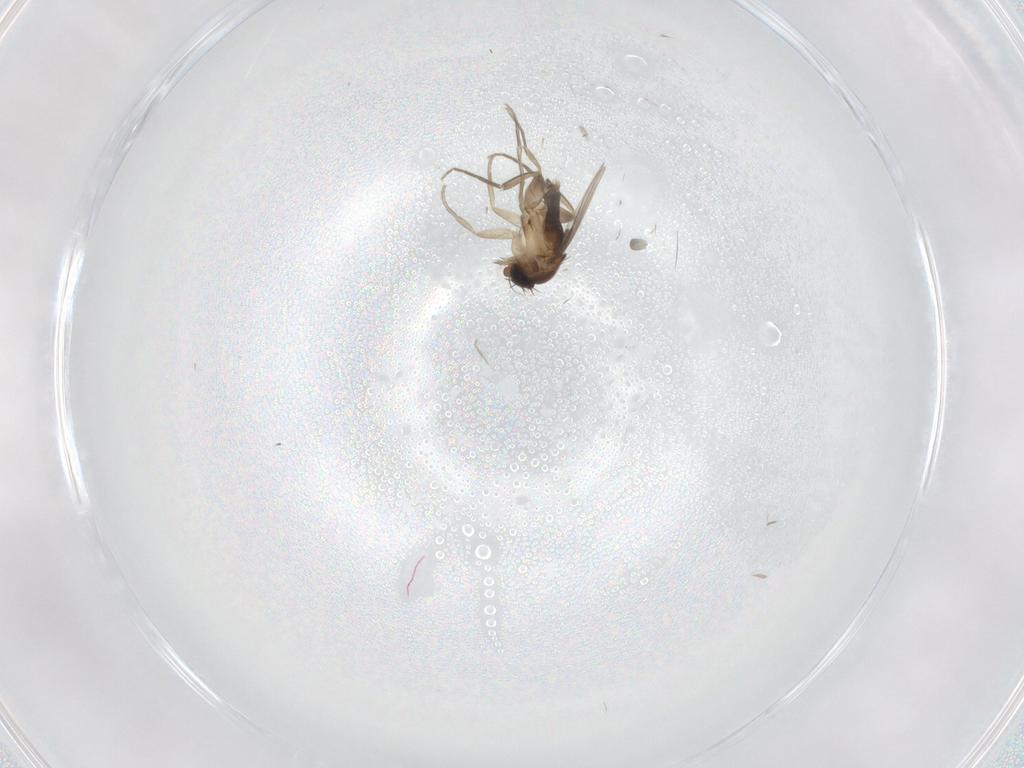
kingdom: Animalia
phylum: Arthropoda
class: Insecta
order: Diptera
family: Phoridae
